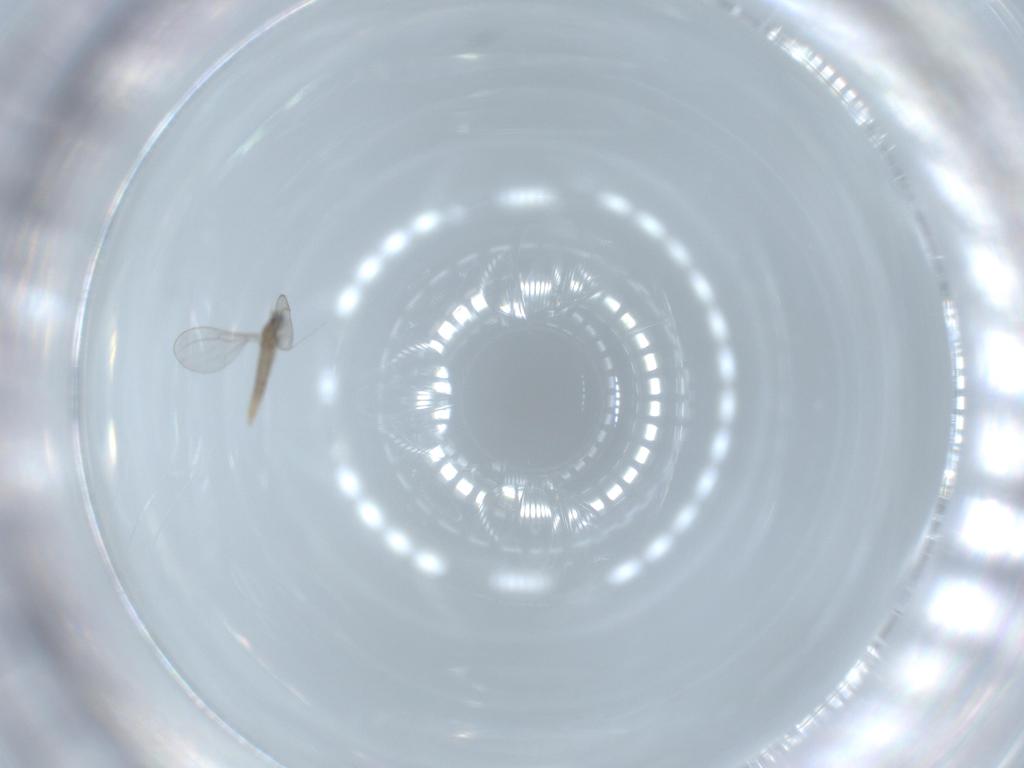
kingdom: Animalia
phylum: Arthropoda
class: Insecta
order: Diptera
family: Cecidomyiidae
